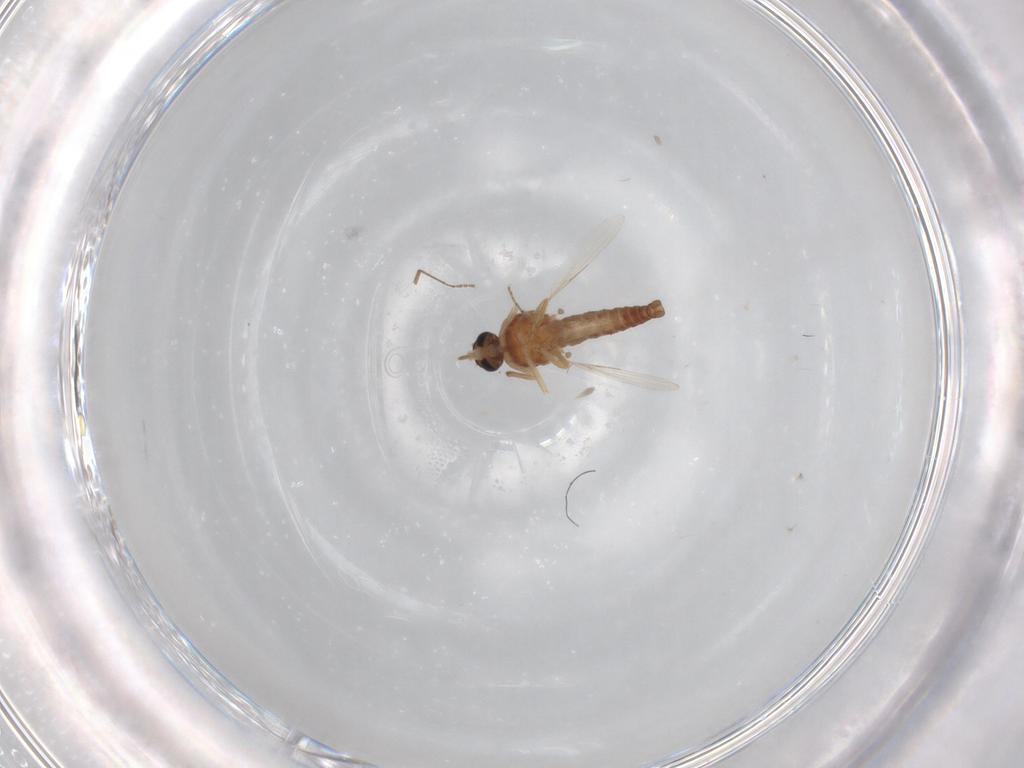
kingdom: Animalia
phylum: Arthropoda
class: Insecta
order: Diptera
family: Ceratopogonidae
